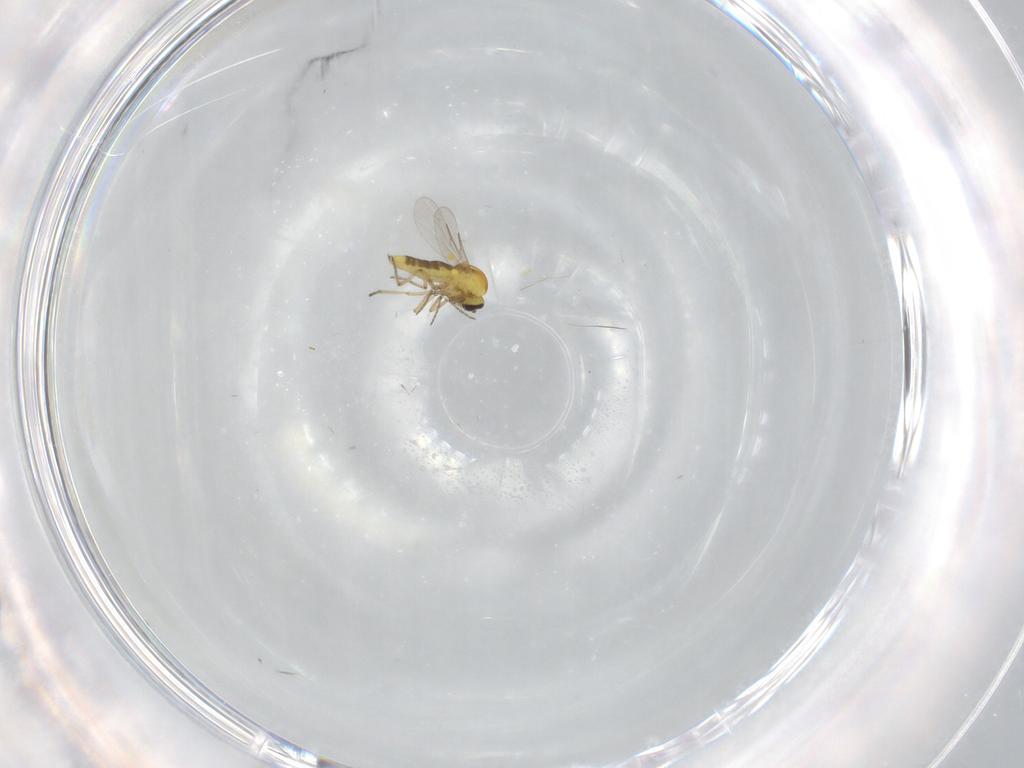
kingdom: Animalia
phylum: Arthropoda
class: Insecta
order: Diptera
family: Ceratopogonidae
